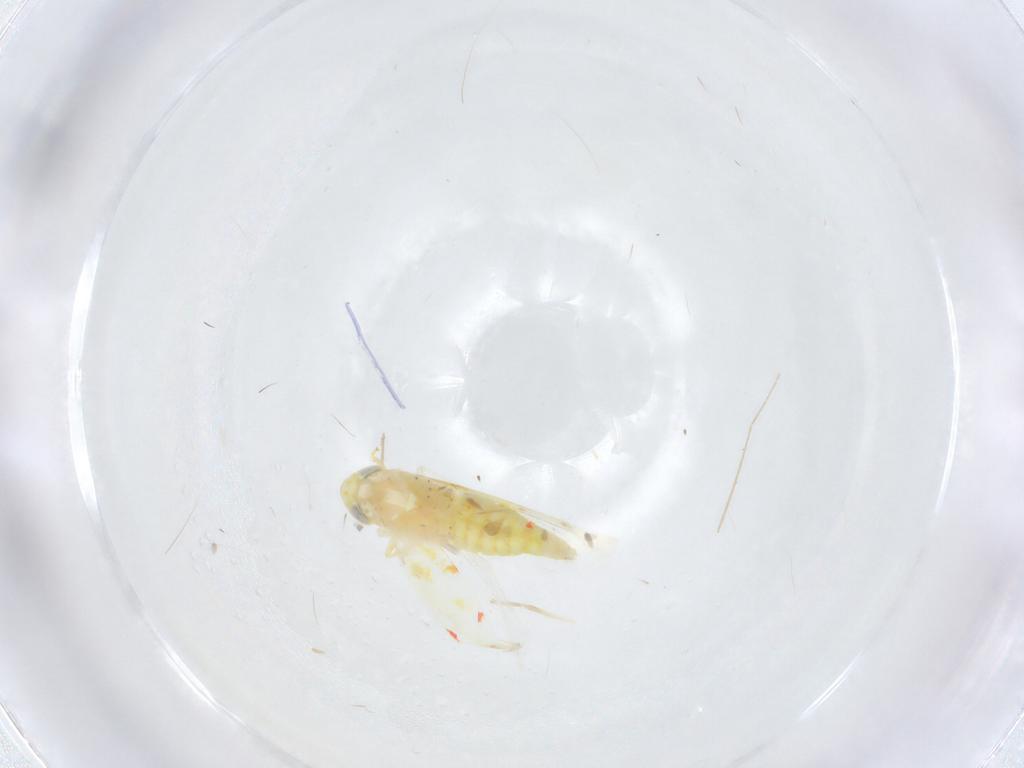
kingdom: Animalia
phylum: Arthropoda
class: Insecta
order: Hemiptera
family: Cicadellidae
